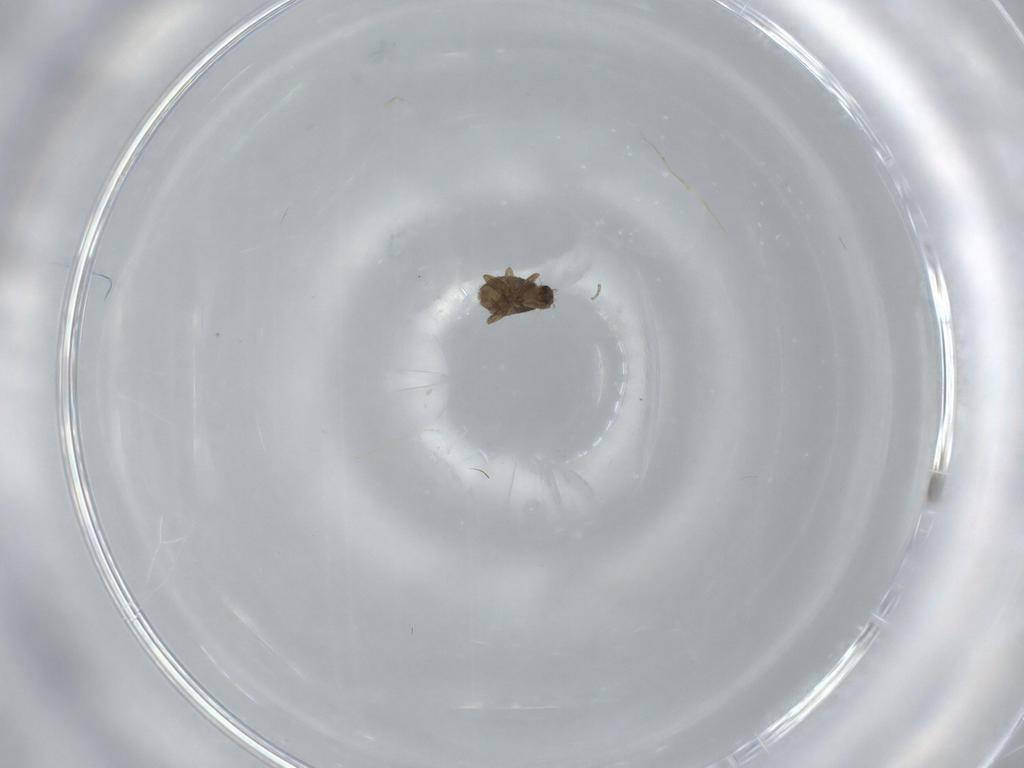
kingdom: Animalia
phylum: Arthropoda
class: Insecta
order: Diptera
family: Phoridae
